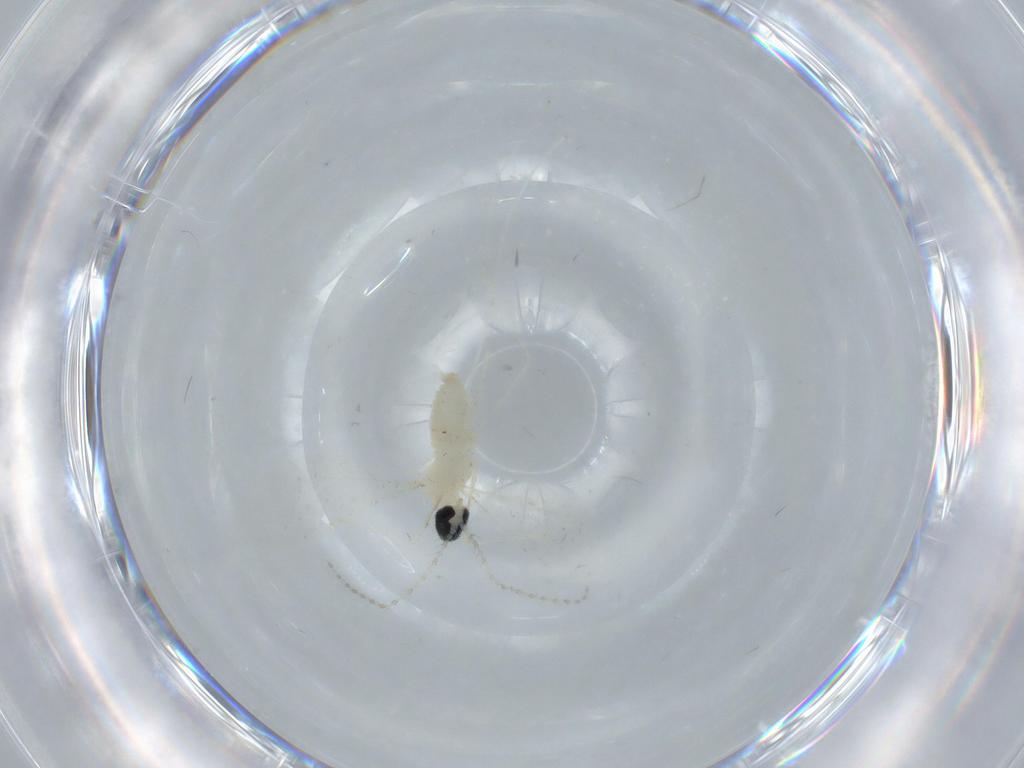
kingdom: Animalia
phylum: Arthropoda
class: Insecta
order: Diptera
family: Cecidomyiidae
